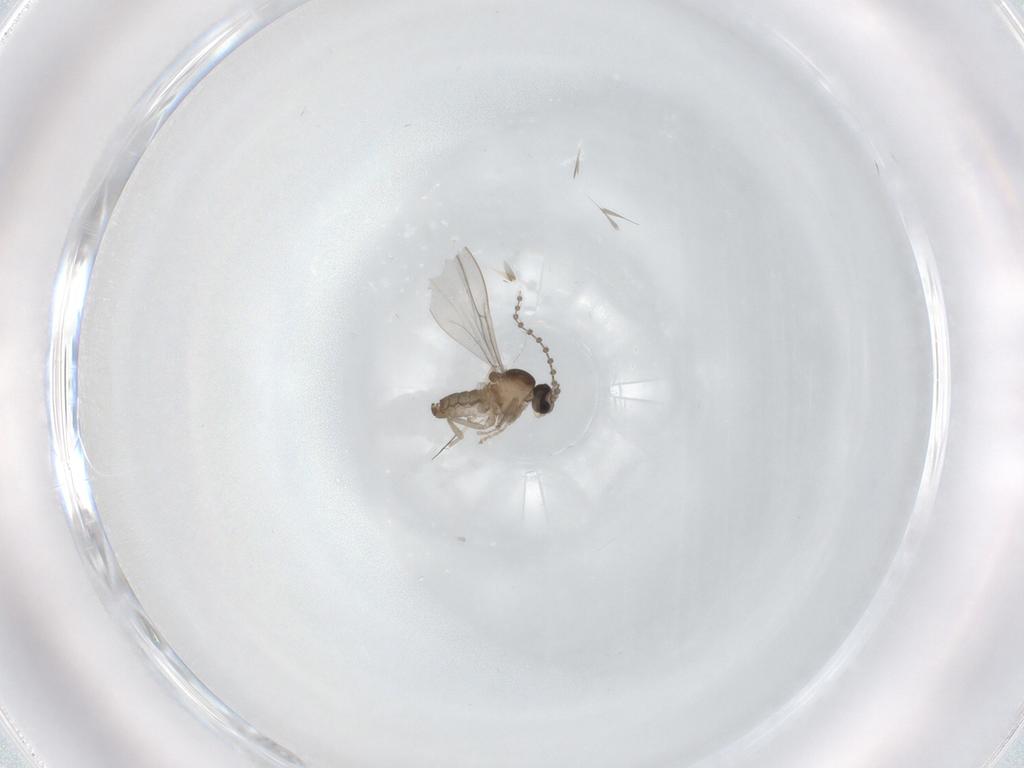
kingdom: Animalia
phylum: Arthropoda
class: Insecta
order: Diptera
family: Cecidomyiidae
